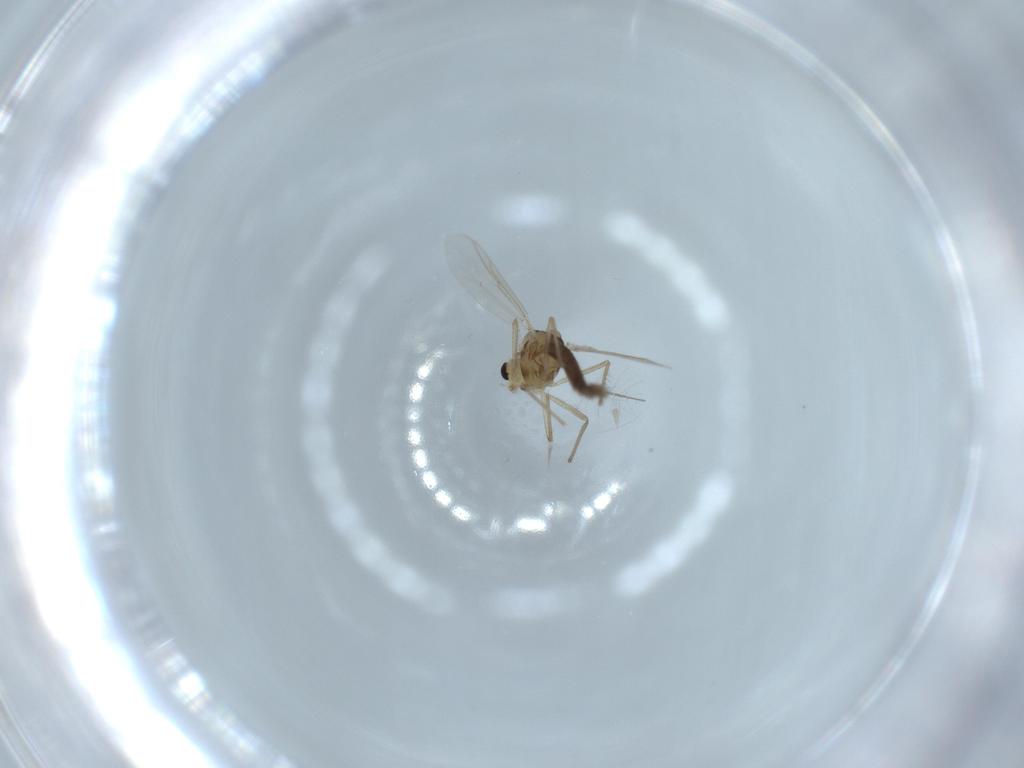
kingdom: Animalia
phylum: Arthropoda
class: Insecta
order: Diptera
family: Chironomidae
